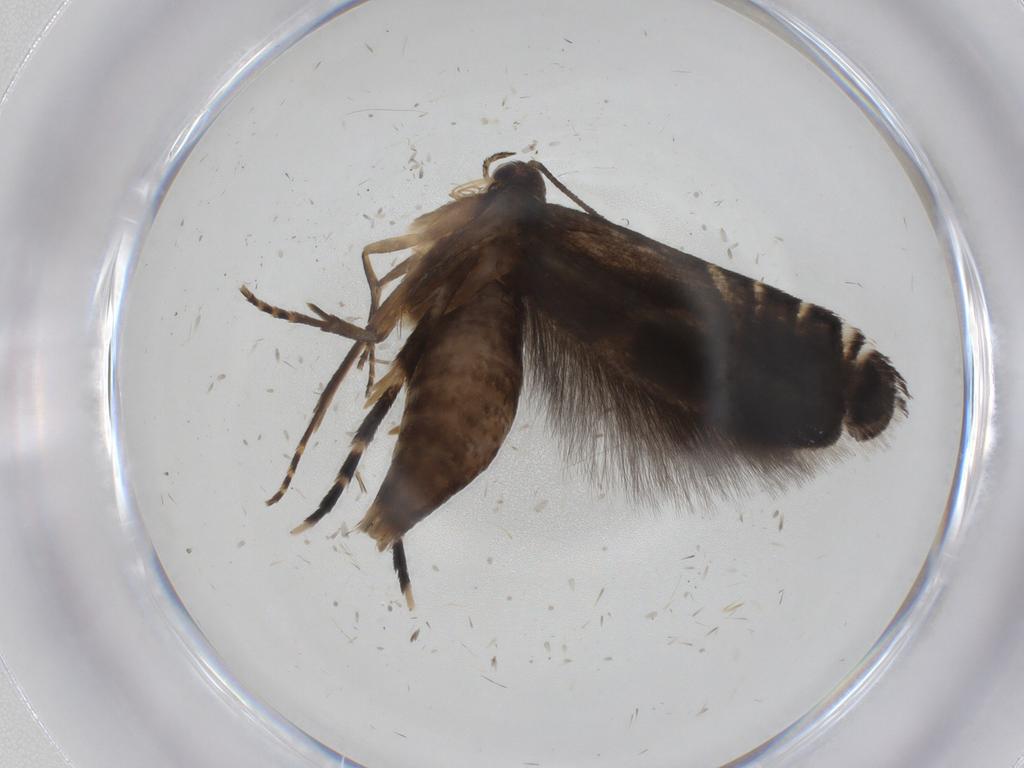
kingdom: Animalia
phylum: Arthropoda
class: Insecta
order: Lepidoptera
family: Glyphipterigidae
